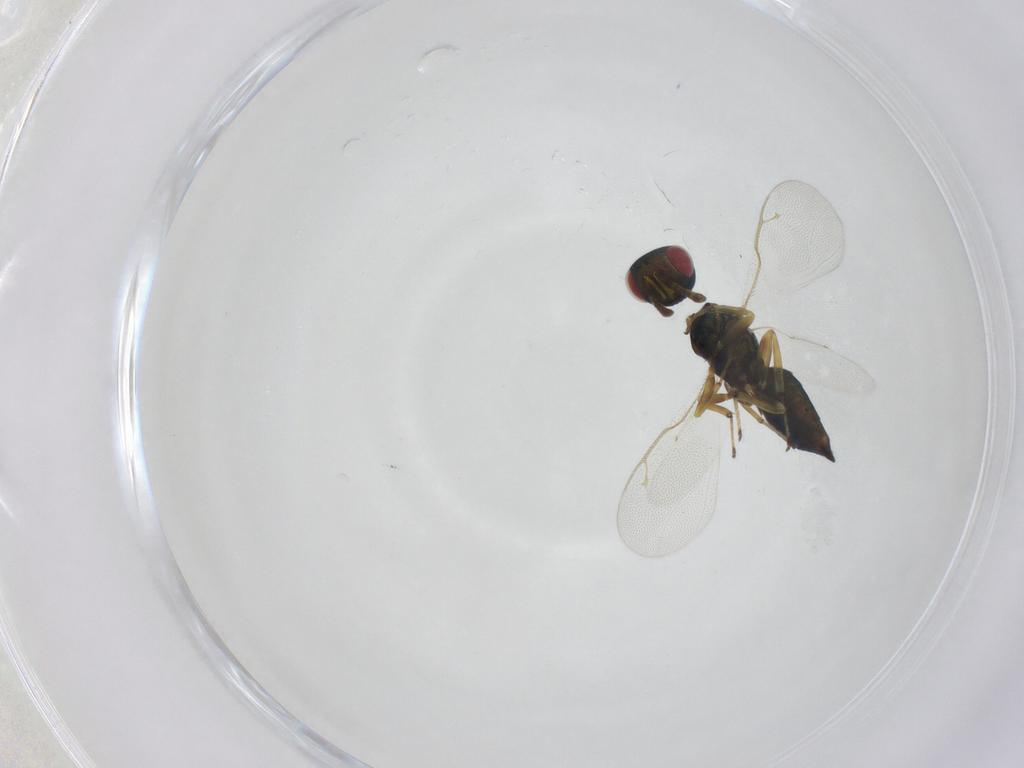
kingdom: Animalia
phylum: Arthropoda
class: Insecta
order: Hymenoptera
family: Pteromalidae
